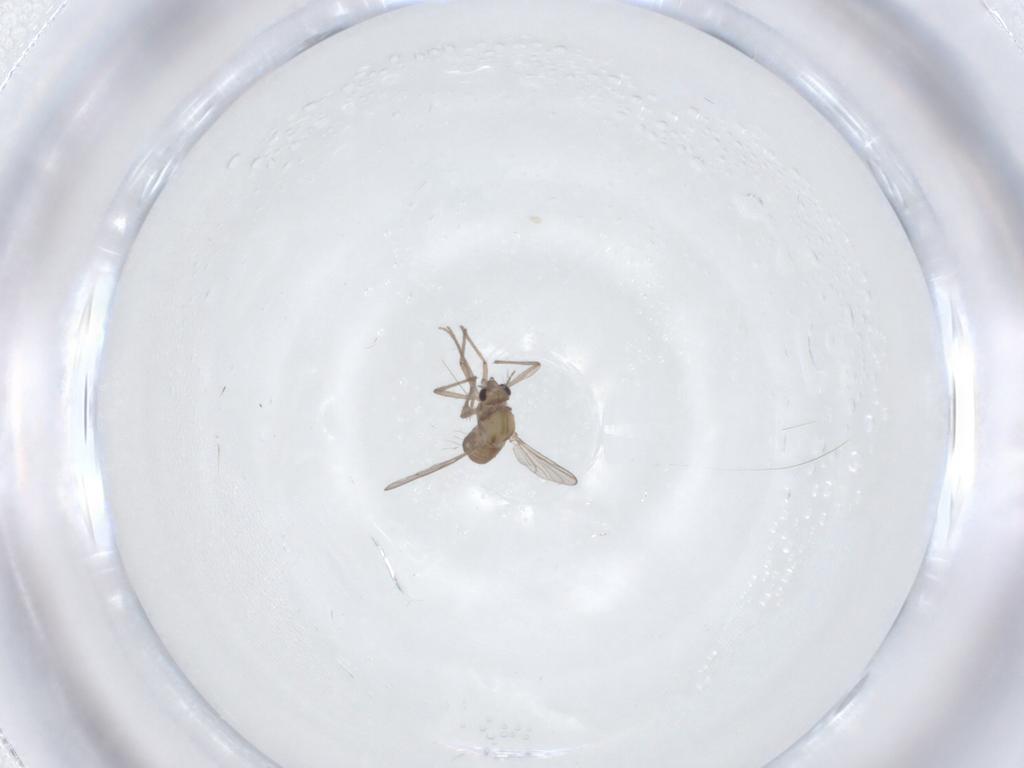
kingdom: Animalia
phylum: Arthropoda
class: Insecta
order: Diptera
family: Chironomidae
